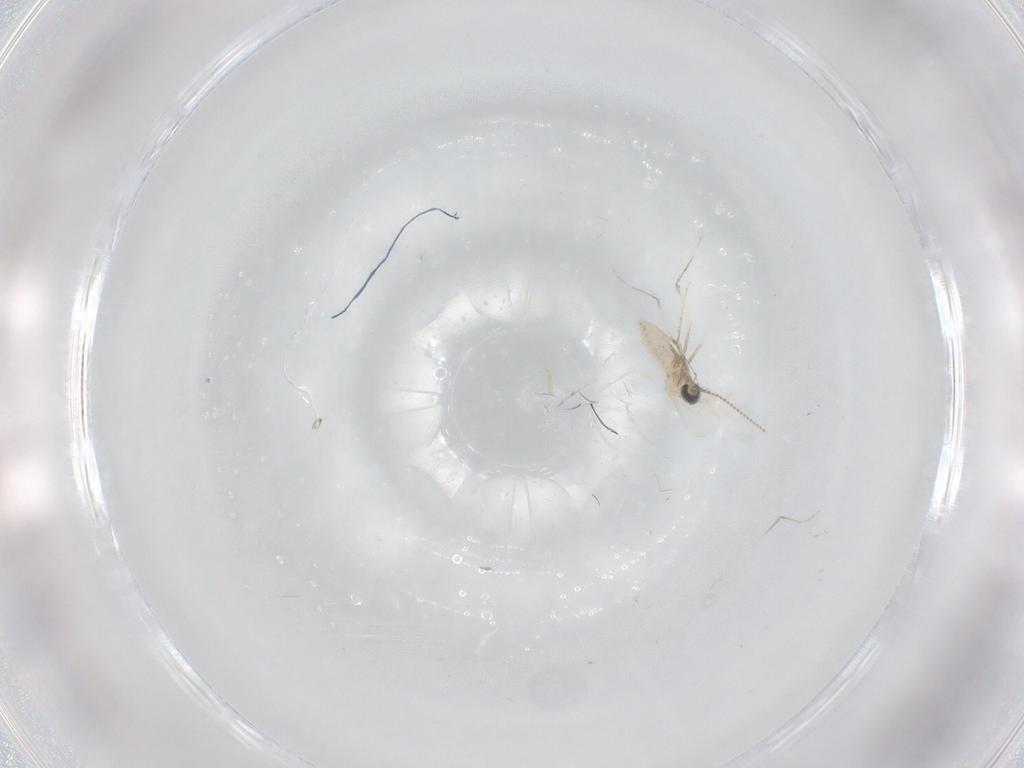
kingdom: Animalia
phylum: Arthropoda
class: Insecta
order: Diptera
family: Cecidomyiidae
